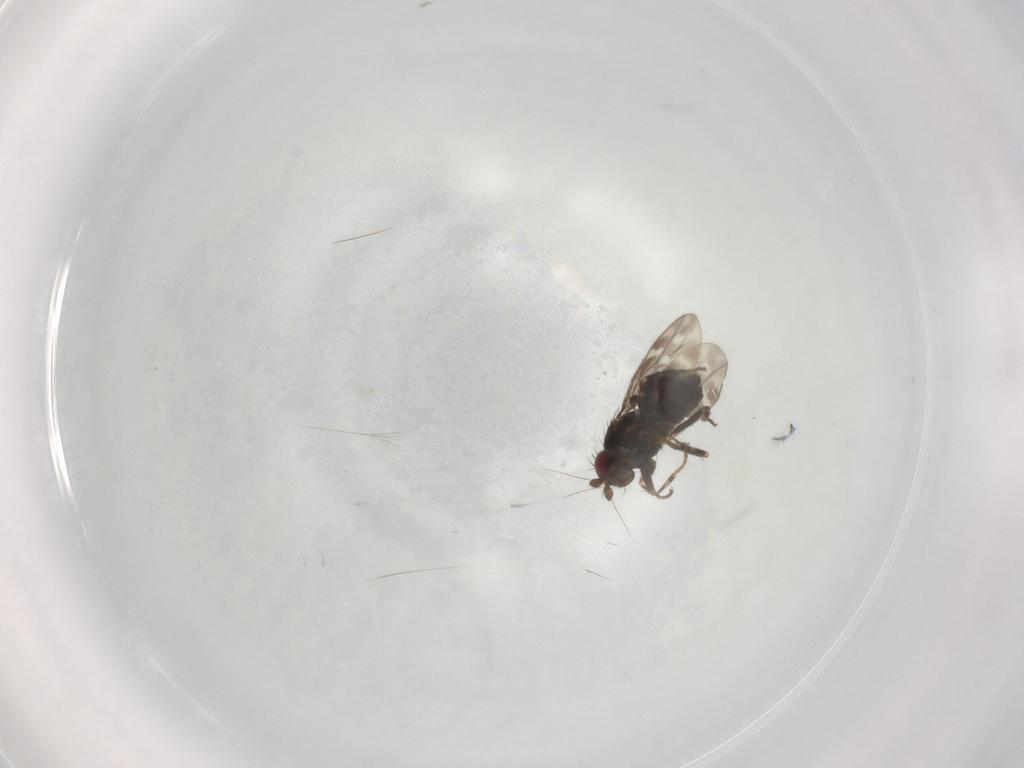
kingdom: Animalia
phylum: Arthropoda
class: Insecta
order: Diptera
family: Sphaeroceridae
